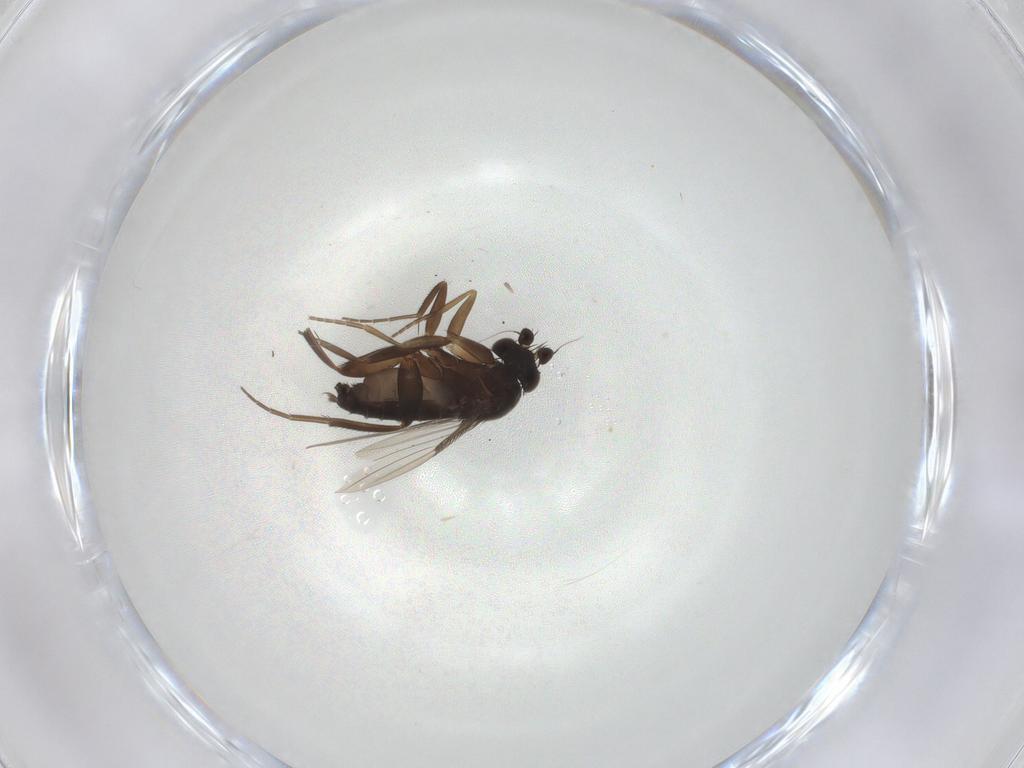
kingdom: Animalia
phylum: Arthropoda
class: Insecta
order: Diptera
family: Phoridae
